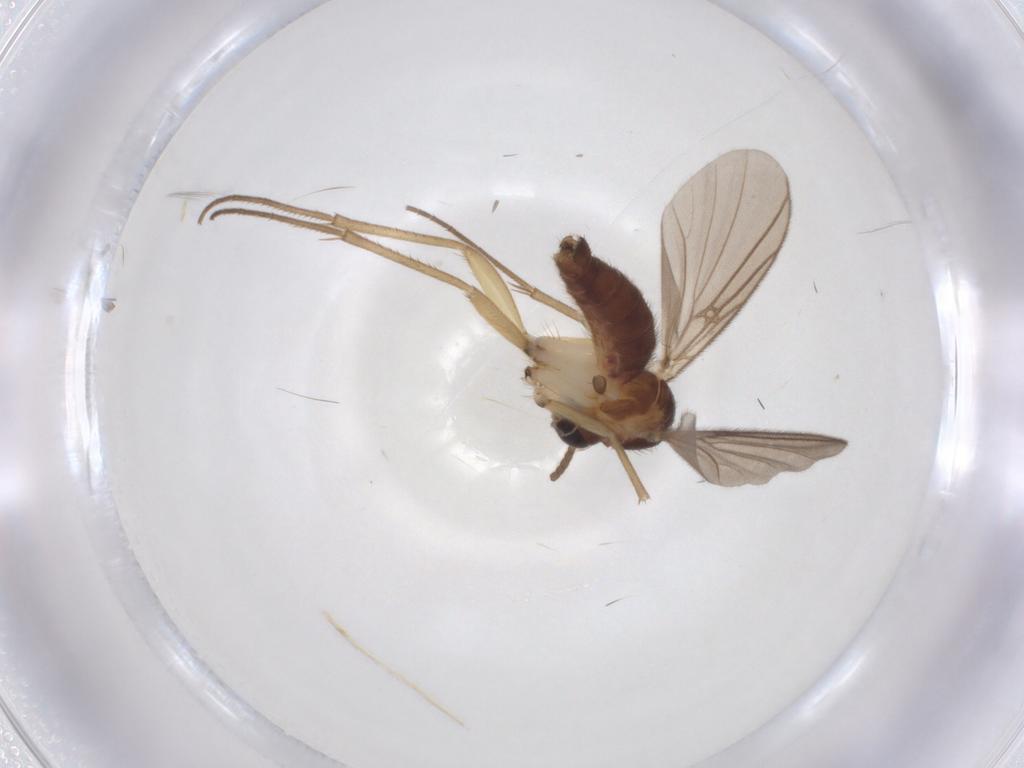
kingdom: Animalia
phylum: Arthropoda
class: Insecta
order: Diptera
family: Mycetophilidae
